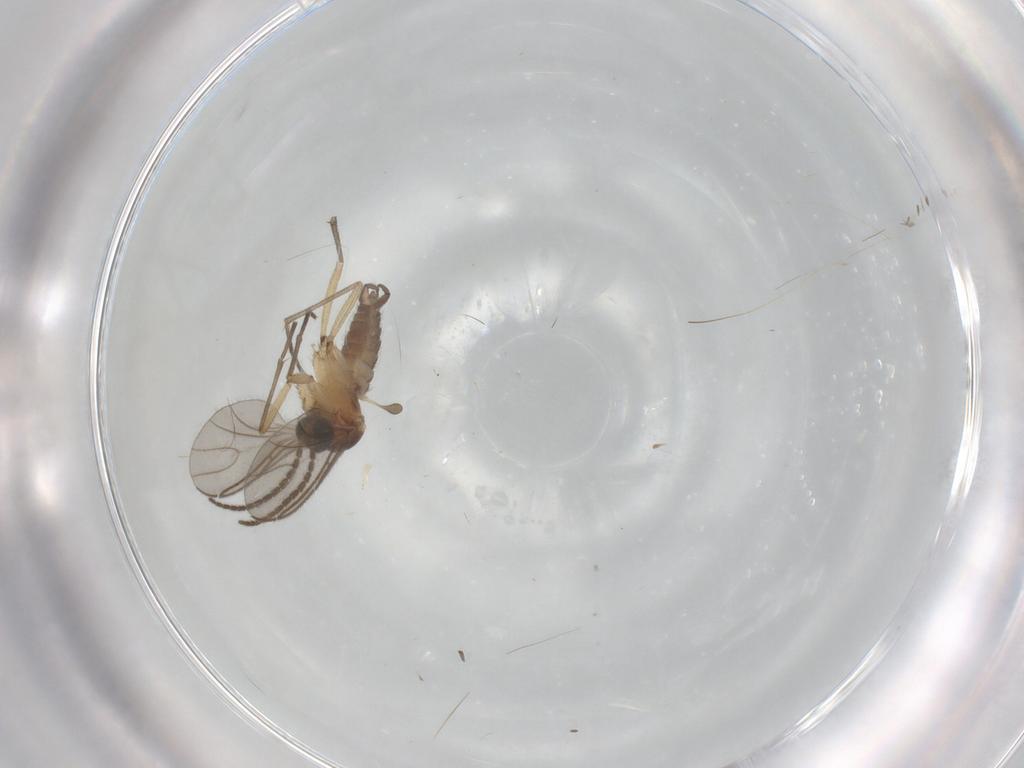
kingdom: Animalia
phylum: Arthropoda
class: Insecta
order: Diptera
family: Sciaridae
